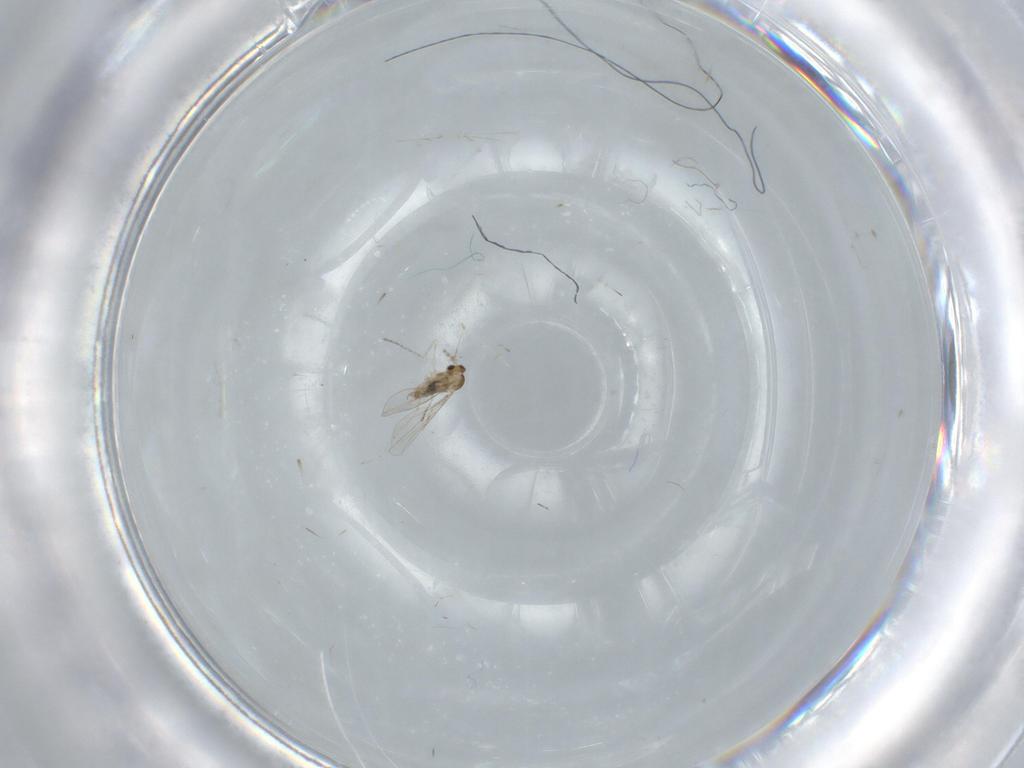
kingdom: Animalia
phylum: Arthropoda
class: Insecta
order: Diptera
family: Cecidomyiidae
